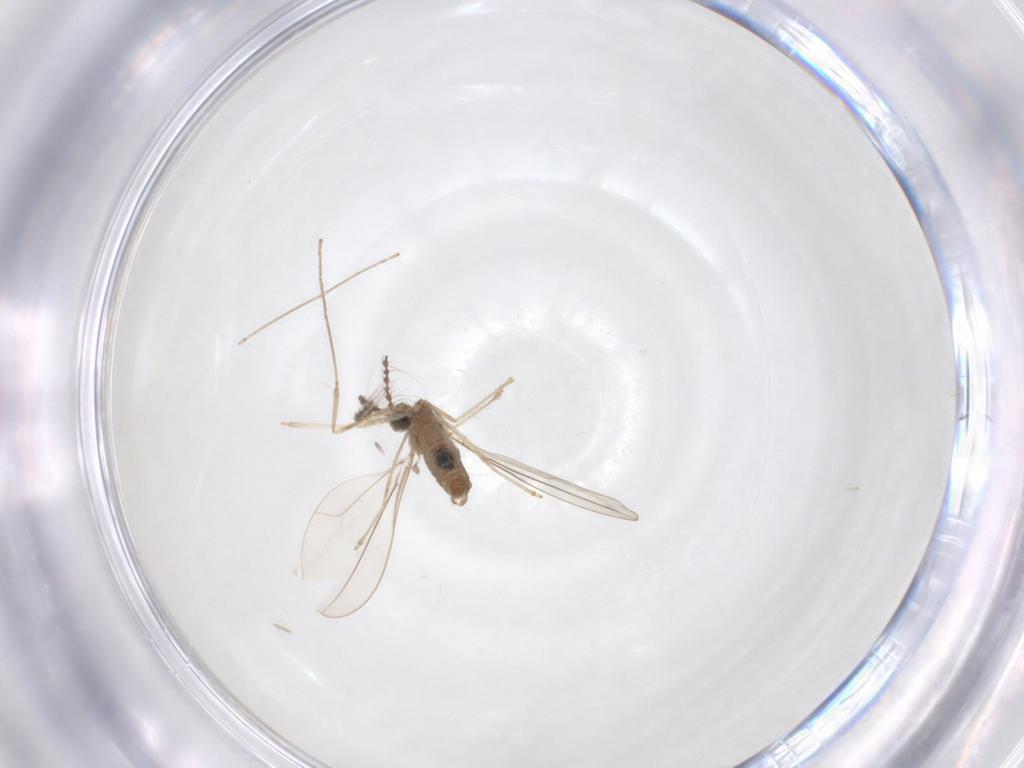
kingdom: Animalia
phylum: Arthropoda
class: Insecta
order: Diptera
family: Cecidomyiidae
